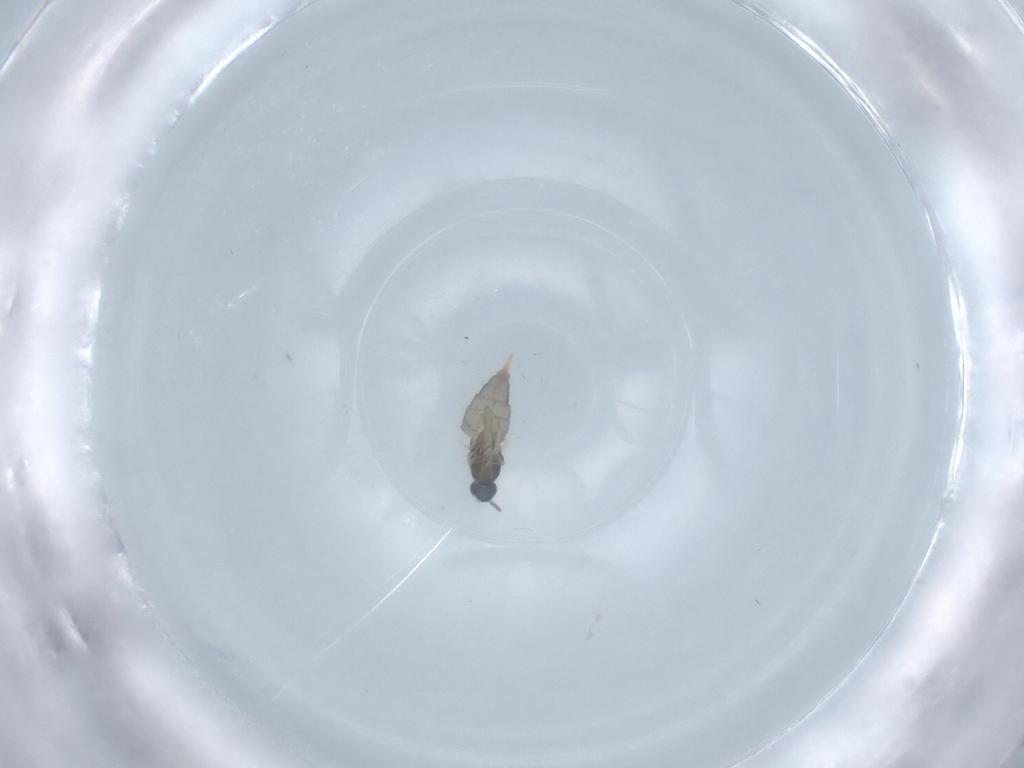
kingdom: Animalia
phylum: Arthropoda
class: Insecta
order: Diptera
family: Cecidomyiidae
